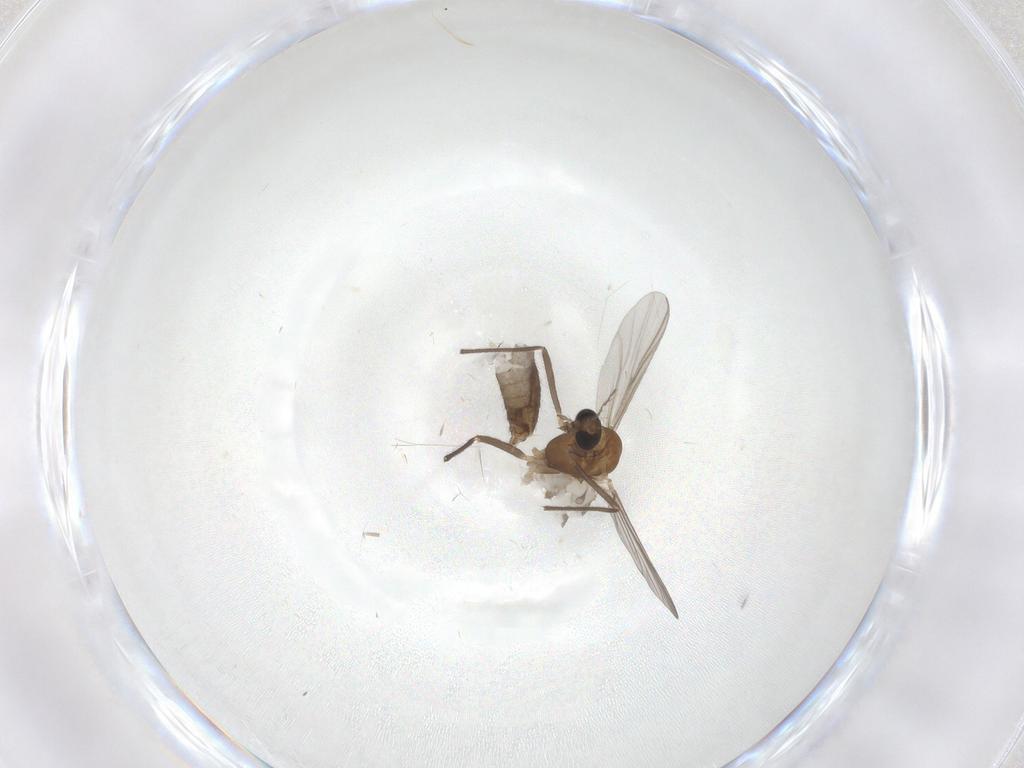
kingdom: Animalia
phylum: Arthropoda
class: Insecta
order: Diptera
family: Chironomidae
